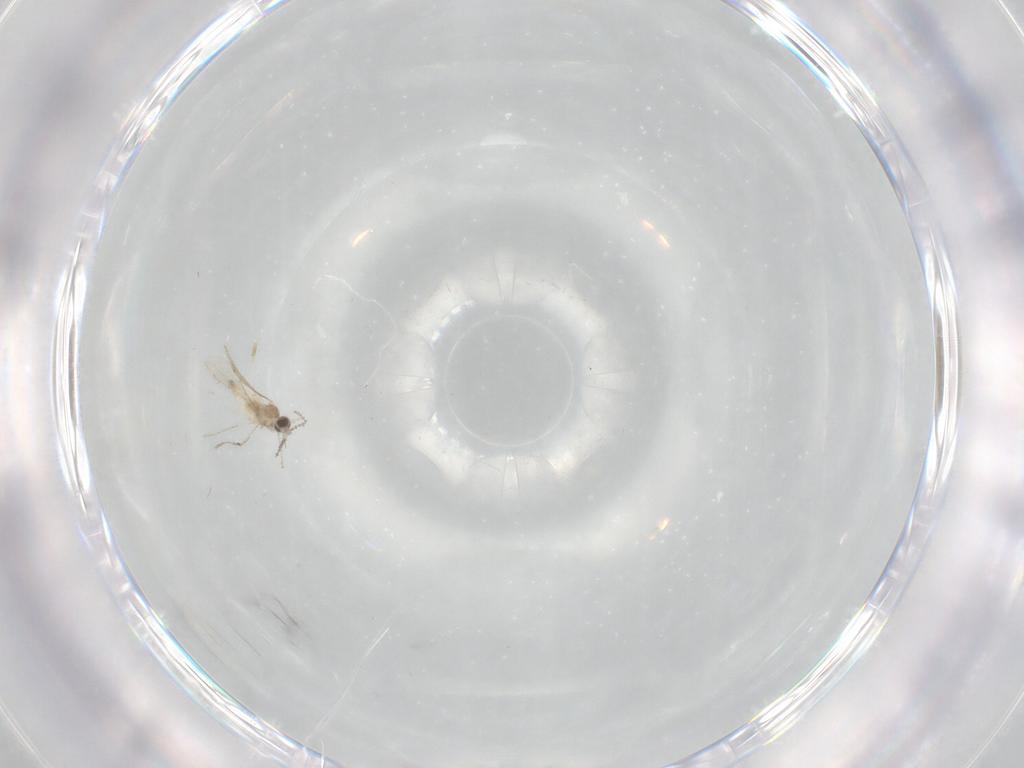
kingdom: Animalia
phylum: Arthropoda
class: Insecta
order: Diptera
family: Cecidomyiidae
